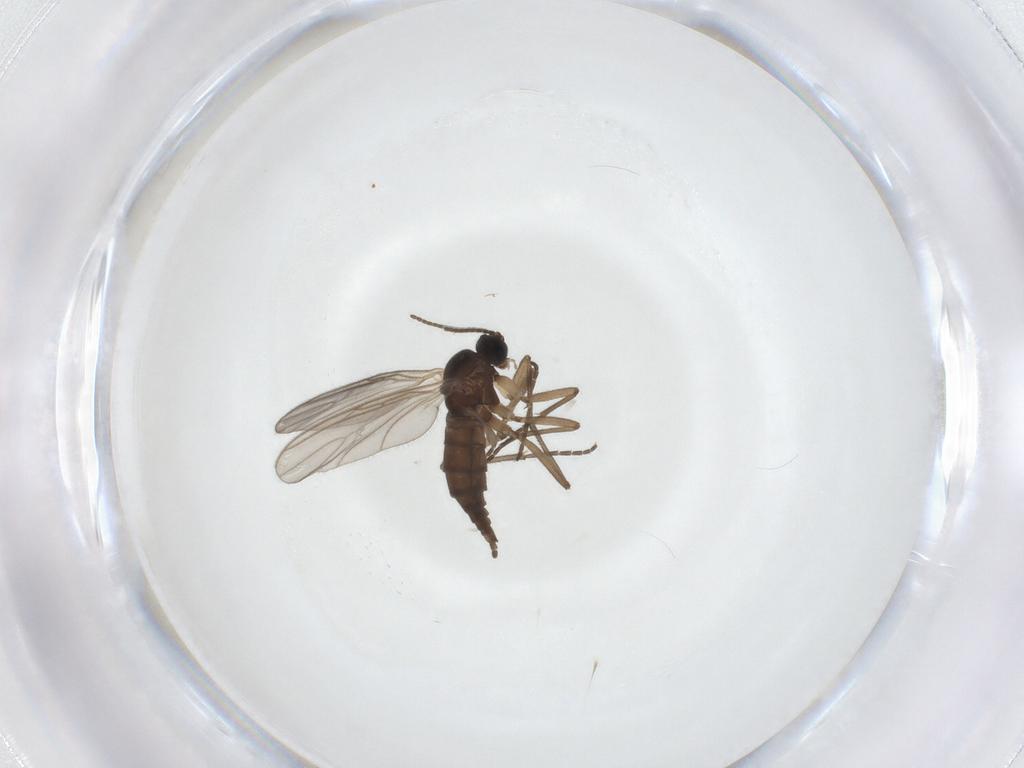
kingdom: Animalia
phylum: Arthropoda
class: Insecta
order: Diptera
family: Sciaridae
